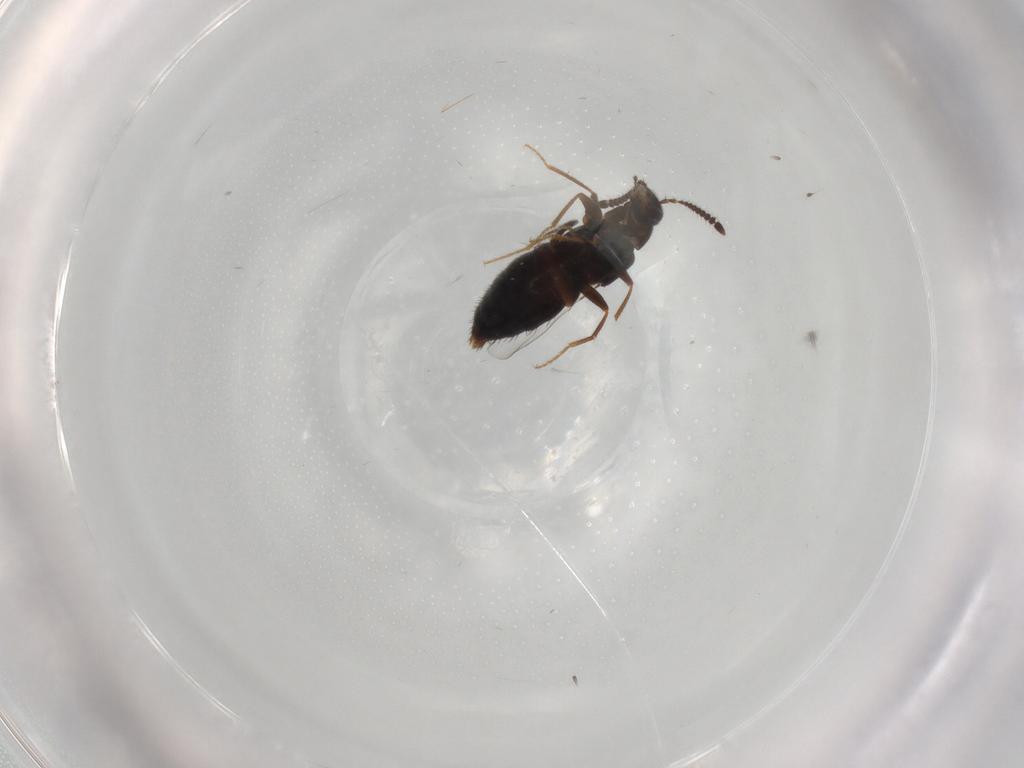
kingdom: Animalia
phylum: Arthropoda
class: Insecta
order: Coleoptera
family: Staphylinidae
